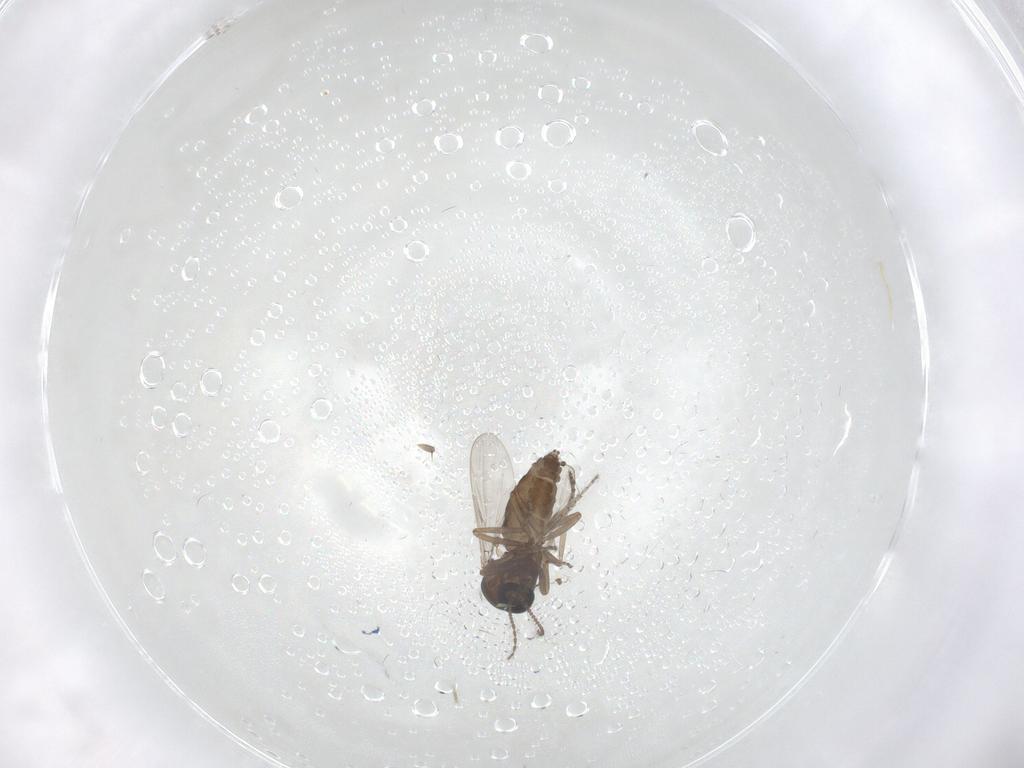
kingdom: Animalia
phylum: Arthropoda
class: Insecta
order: Diptera
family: Ceratopogonidae
